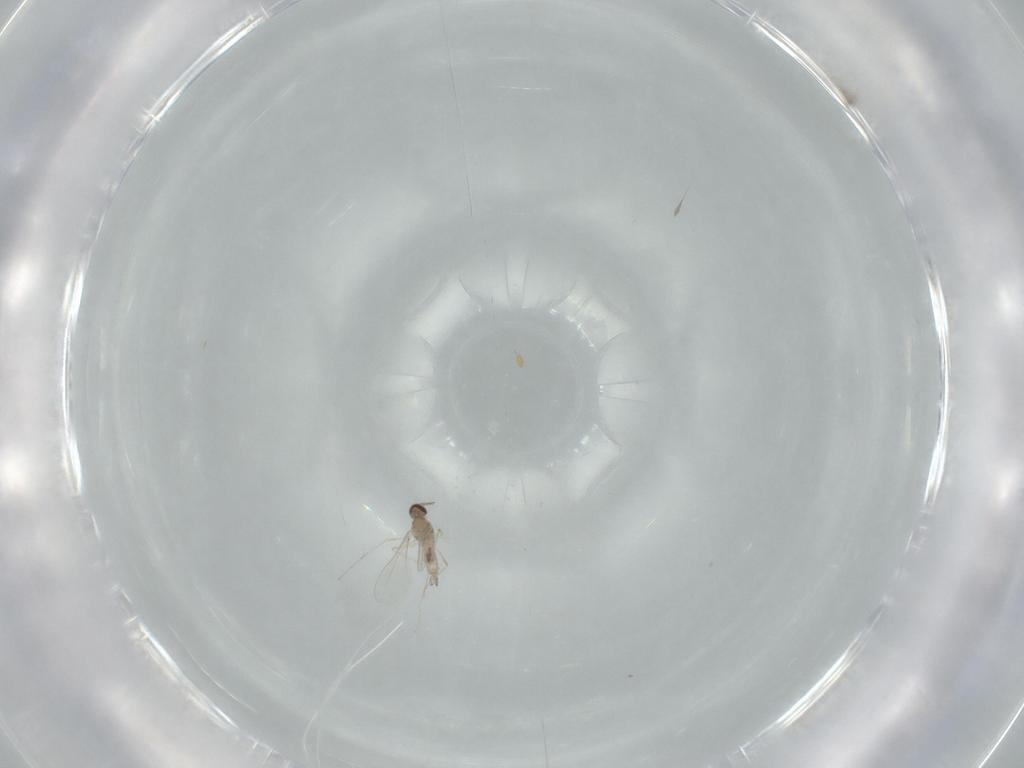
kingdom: Animalia
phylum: Arthropoda
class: Insecta
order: Diptera
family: Cecidomyiidae
